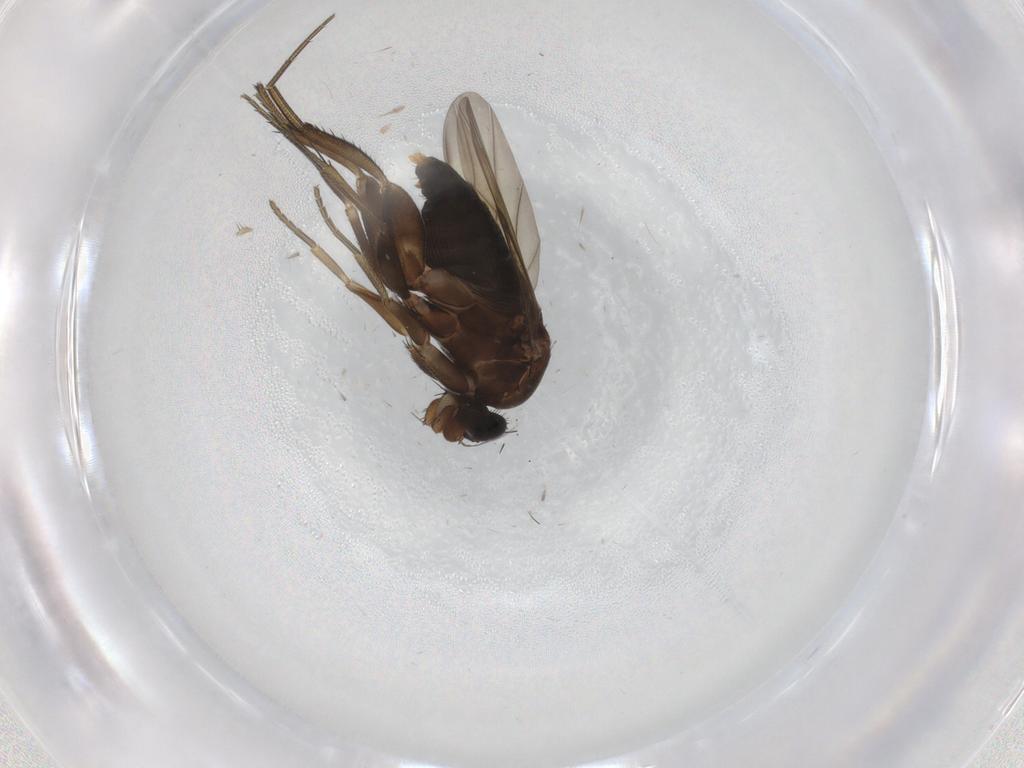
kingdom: Animalia
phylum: Arthropoda
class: Insecta
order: Diptera
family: Phoridae
